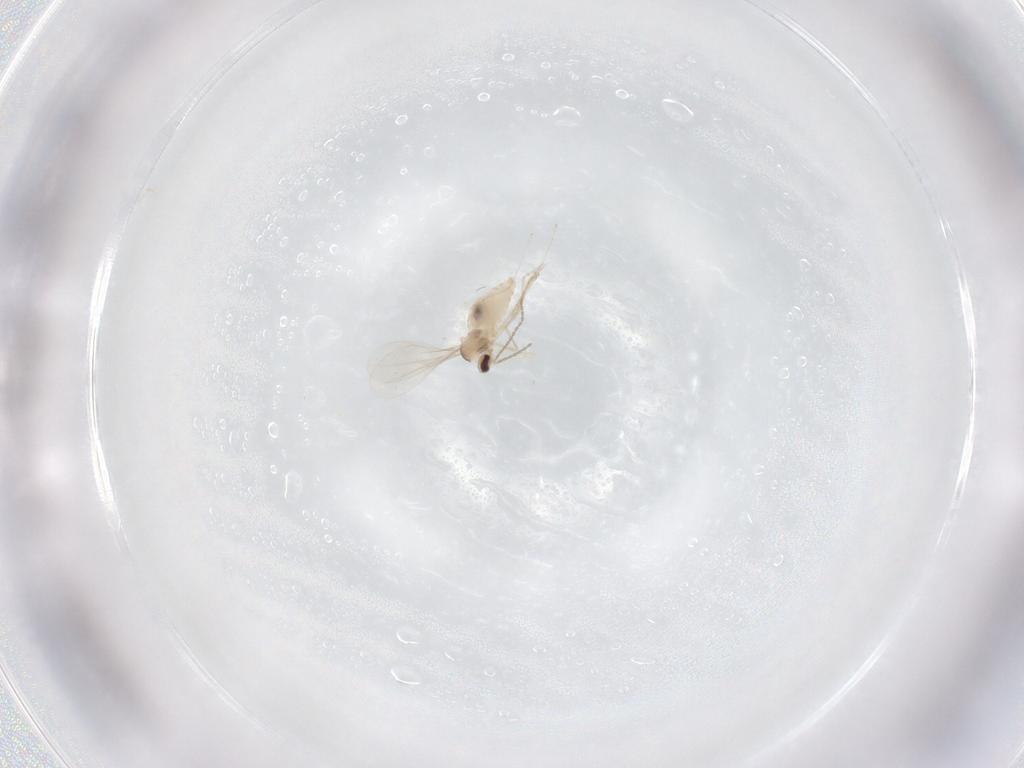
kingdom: Animalia
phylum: Arthropoda
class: Insecta
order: Diptera
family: Cecidomyiidae
